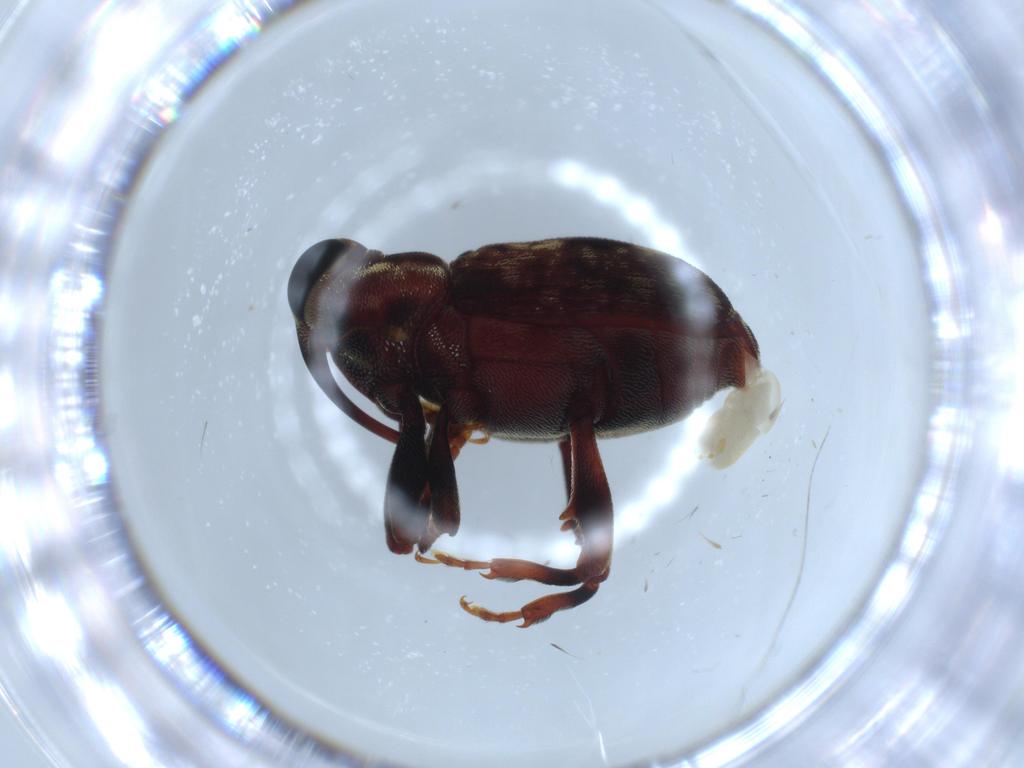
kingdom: Animalia
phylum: Arthropoda
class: Insecta
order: Coleoptera
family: Curculionidae
